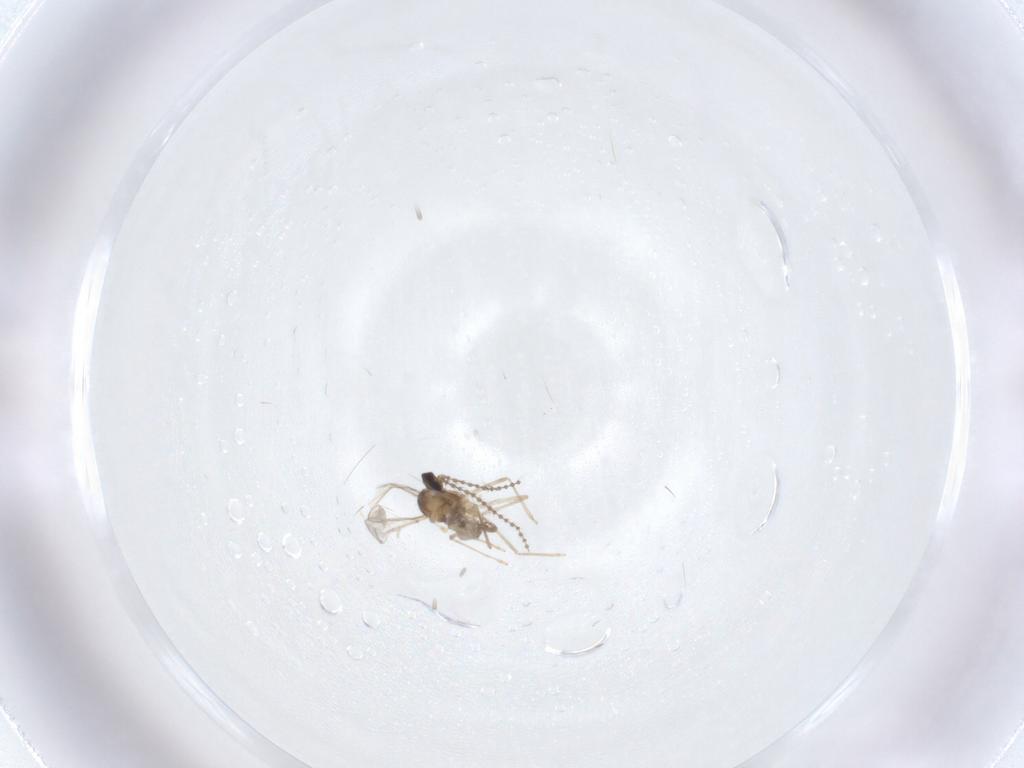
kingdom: Animalia
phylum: Arthropoda
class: Insecta
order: Diptera
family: Cecidomyiidae
